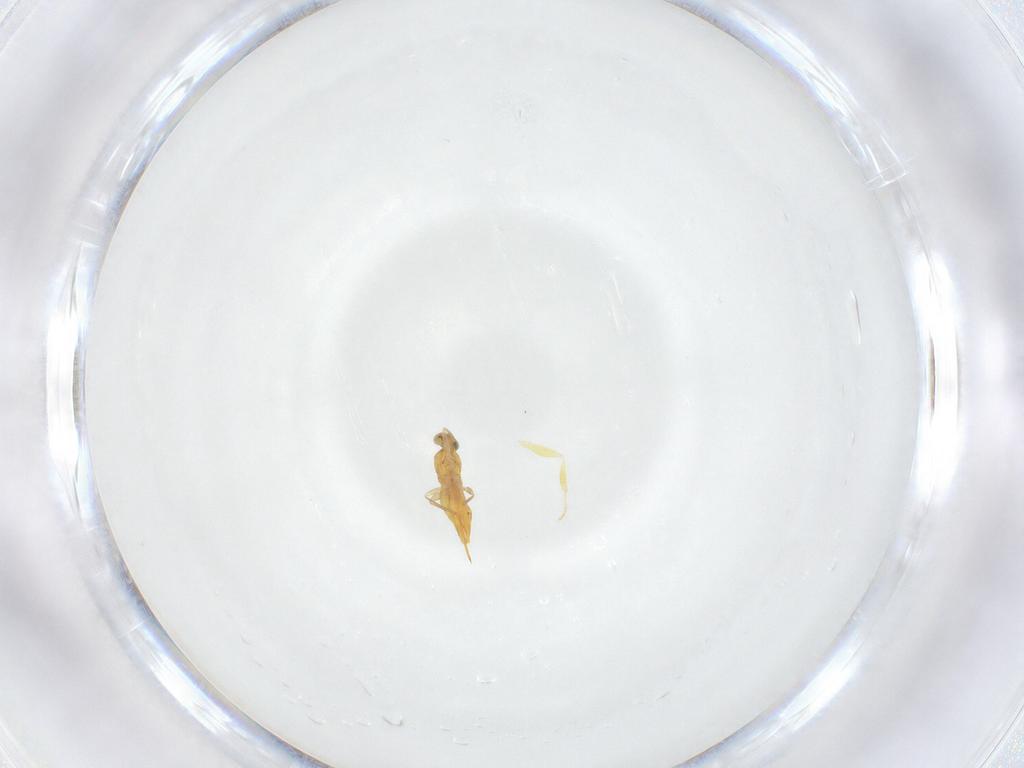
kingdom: Animalia
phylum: Arthropoda
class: Insecta
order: Hymenoptera
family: Aphelinidae
